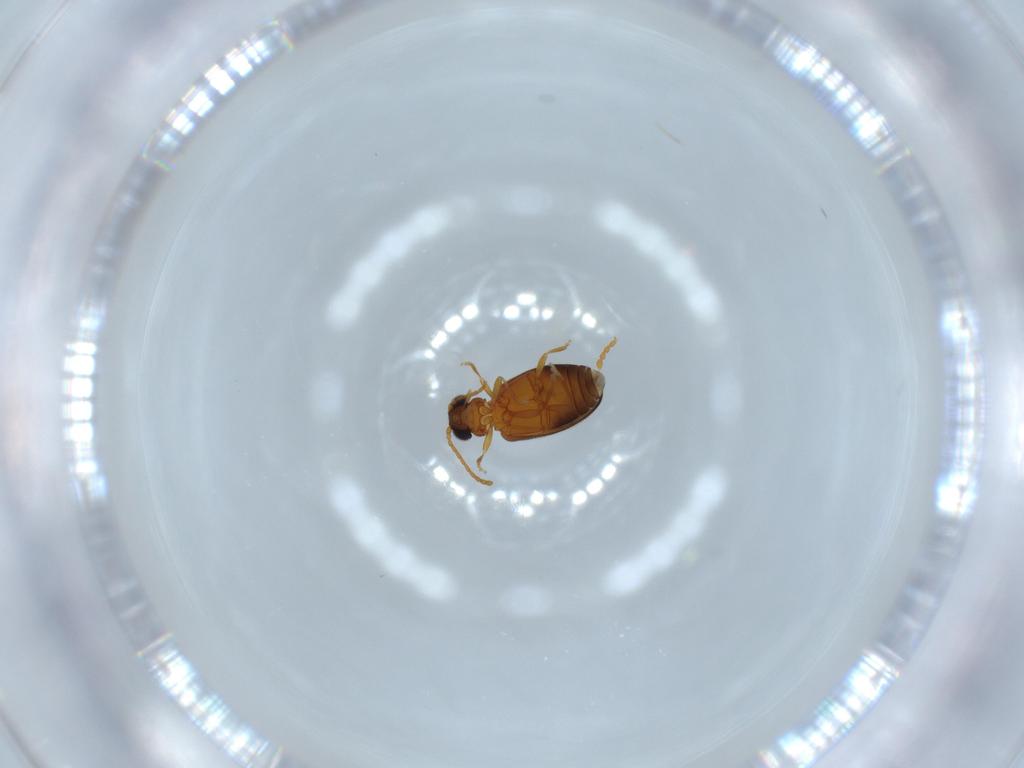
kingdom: Animalia
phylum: Arthropoda
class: Insecta
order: Coleoptera
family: Aderidae
